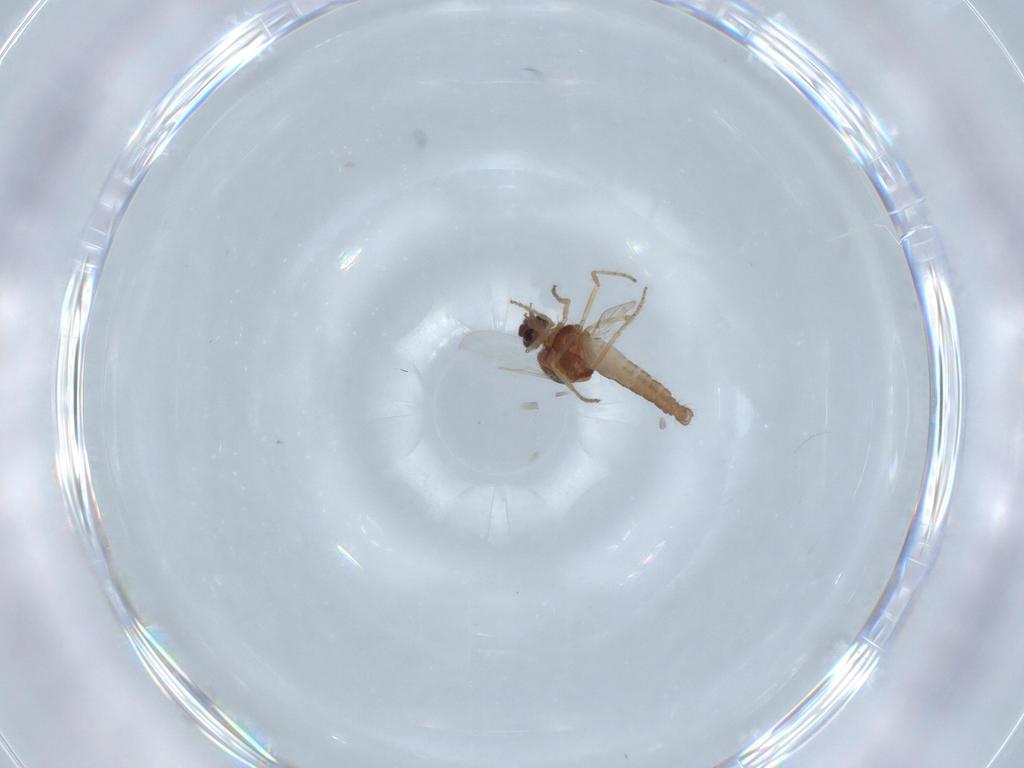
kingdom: Animalia
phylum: Arthropoda
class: Insecta
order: Diptera
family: Ceratopogonidae
